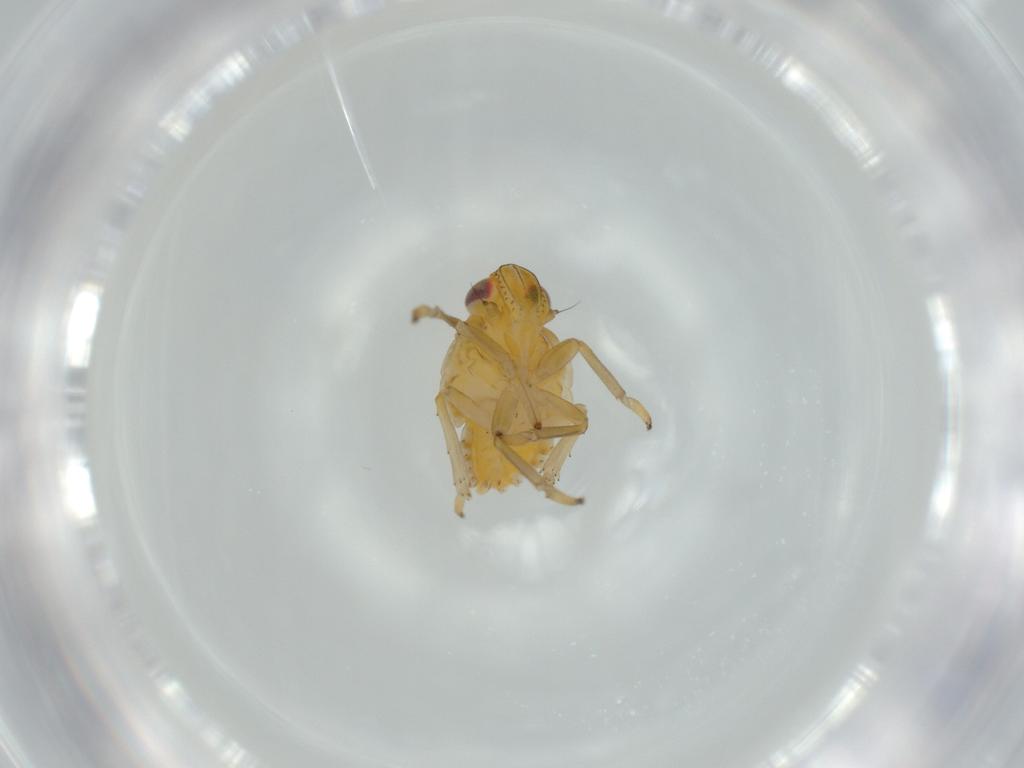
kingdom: Animalia
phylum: Arthropoda
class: Insecta
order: Hemiptera
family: Issidae
